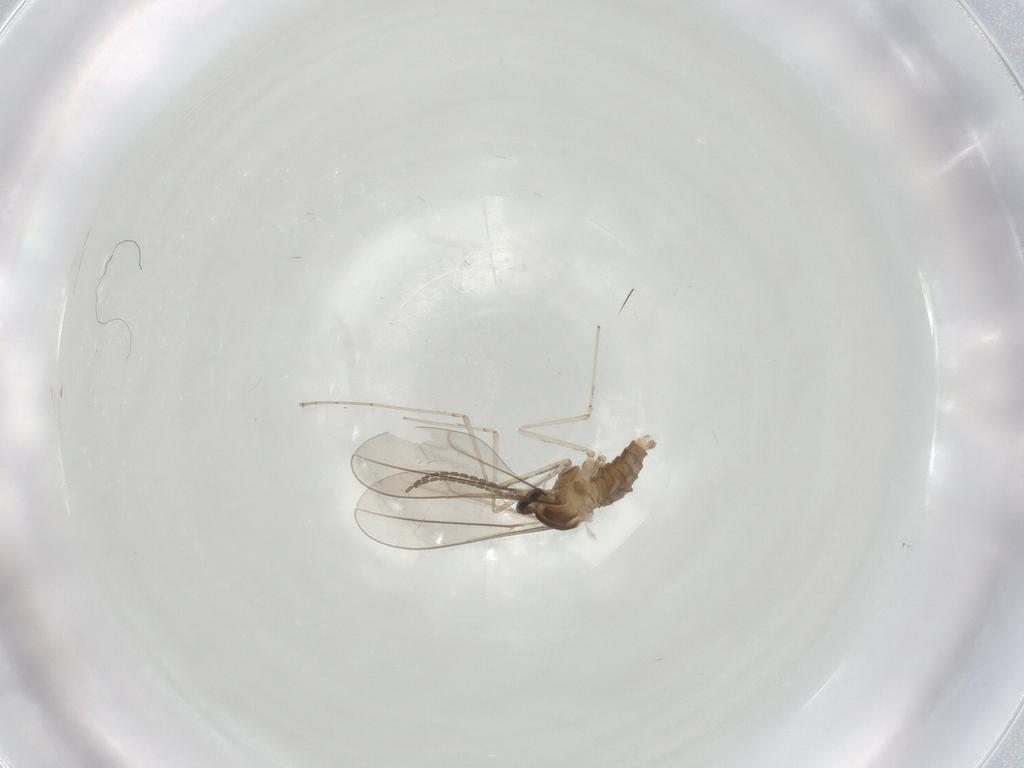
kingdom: Animalia
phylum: Arthropoda
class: Insecta
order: Diptera
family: Cecidomyiidae
